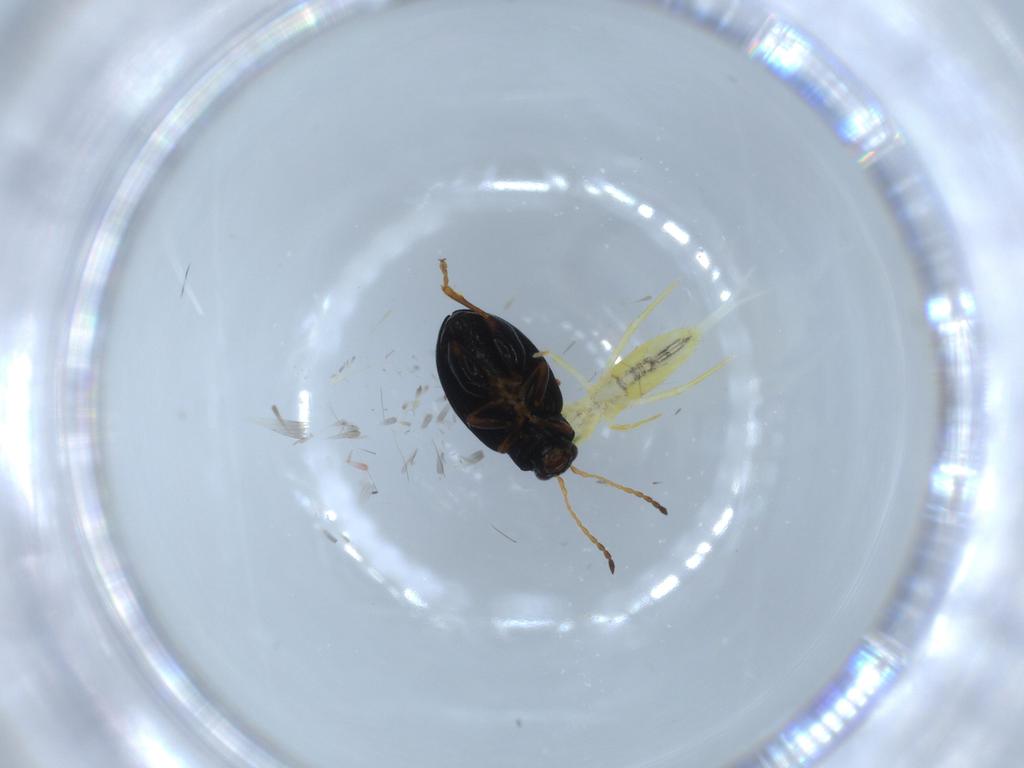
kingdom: Animalia
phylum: Arthropoda
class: Insecta
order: Coleoptera
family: Chrysomelidae
